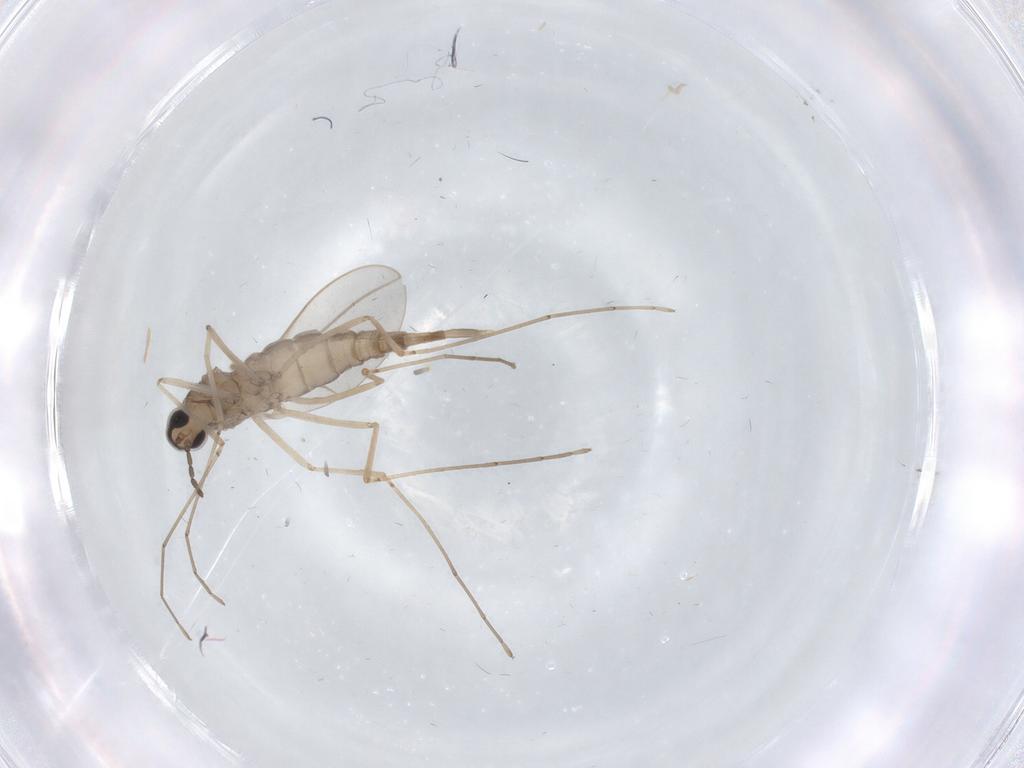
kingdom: Animalia
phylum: Arthropoda
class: Insecta
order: Diptera
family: Cecidomyiidae
